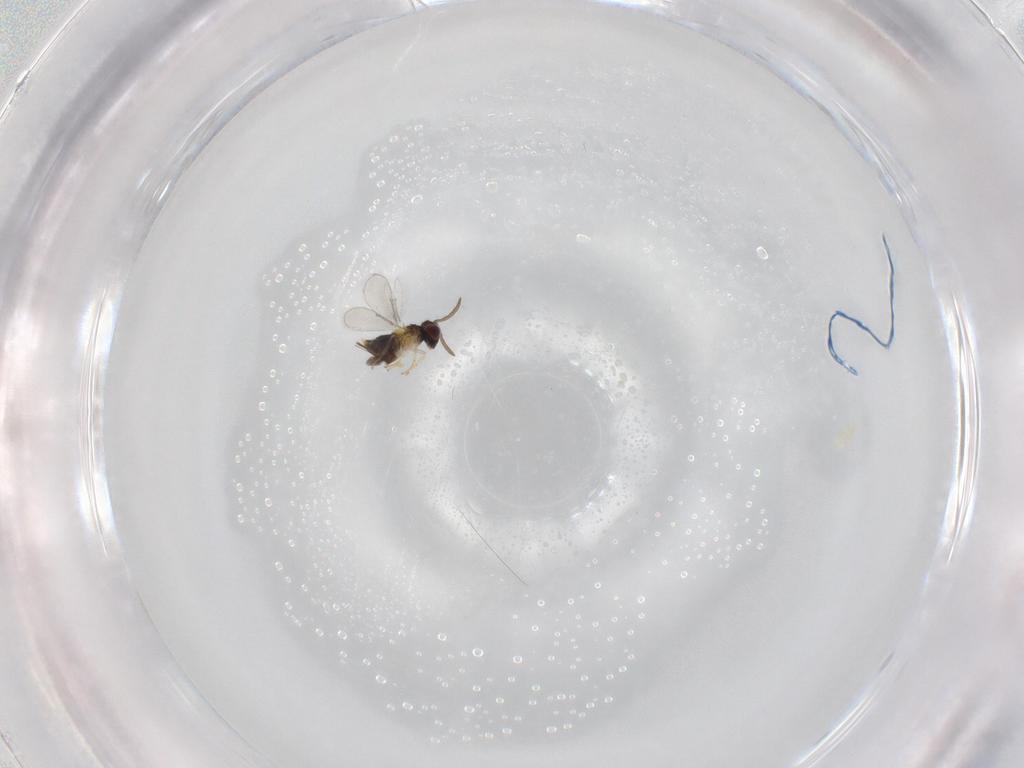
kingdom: Animalia
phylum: Arthropoda
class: Insecta
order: Hymenoptera
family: Aphelinidae
